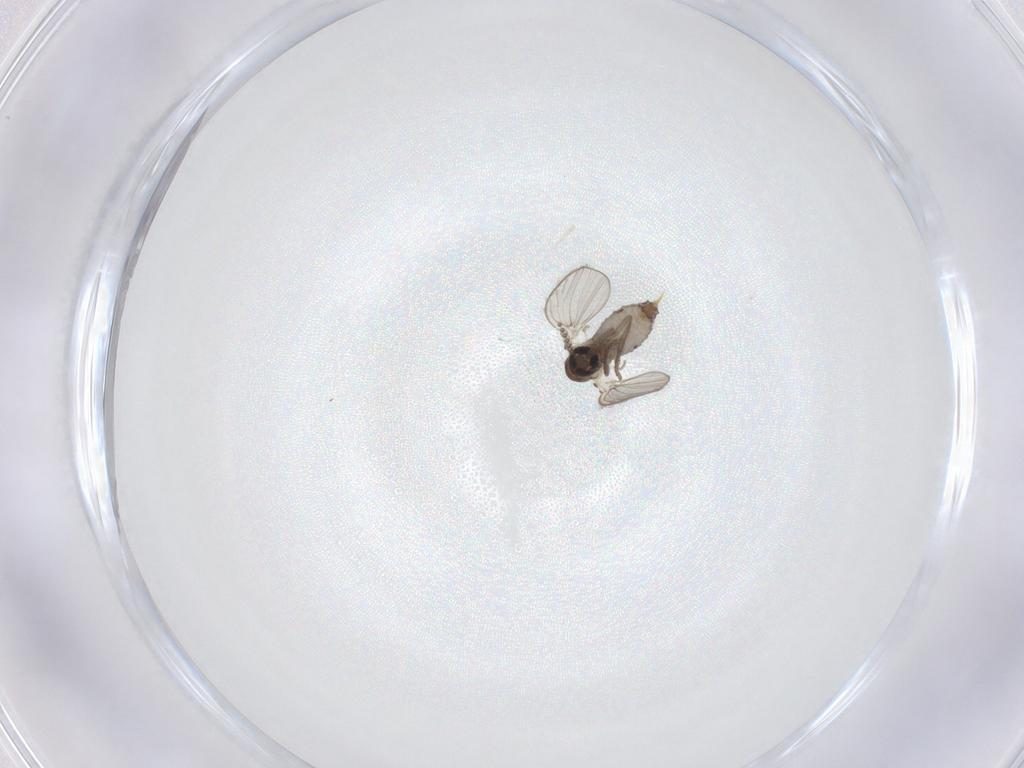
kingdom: Animalia
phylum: Arthropoda
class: Insecta
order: Diptera
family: Psychodidae
